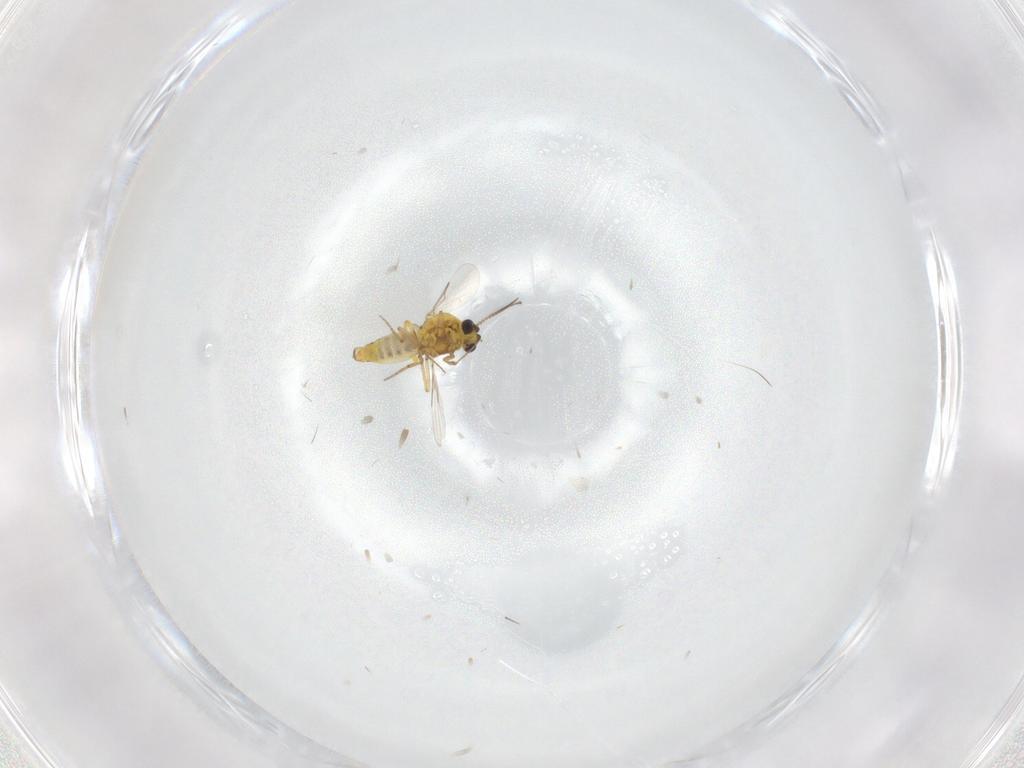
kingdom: Animalia
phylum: Arthropoda
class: Insecta
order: Diptera
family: Ceratopogonidae
